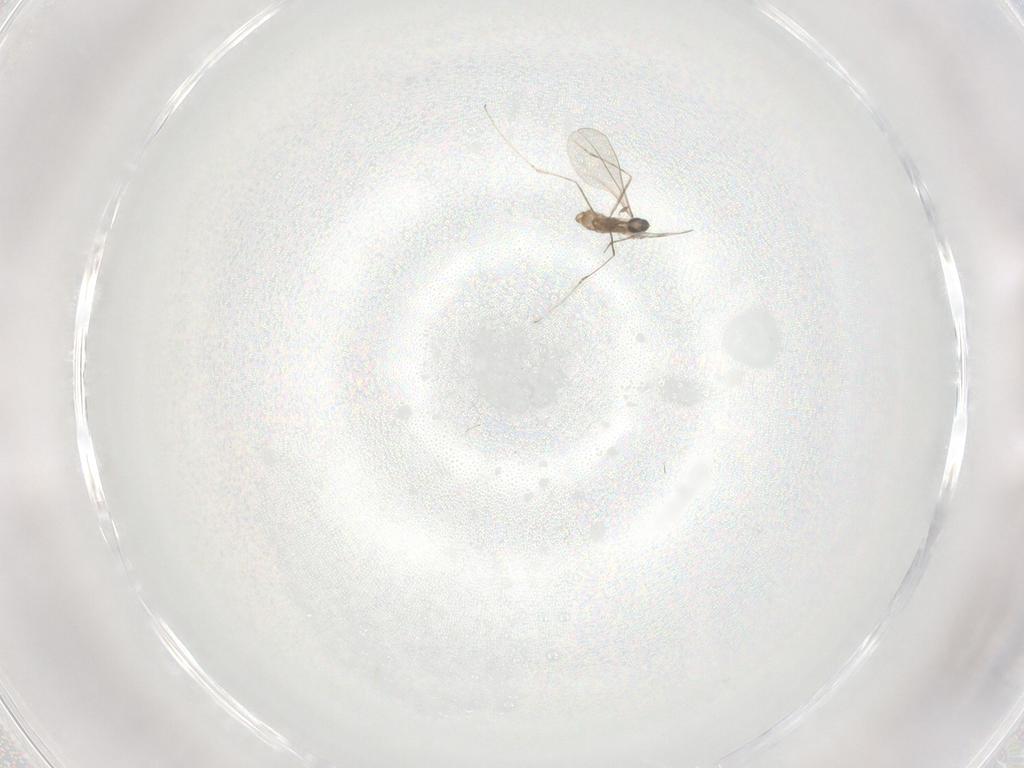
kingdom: Animalia
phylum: Arthropoda
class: Insecta
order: Diptera
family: Cecidomyiidae
